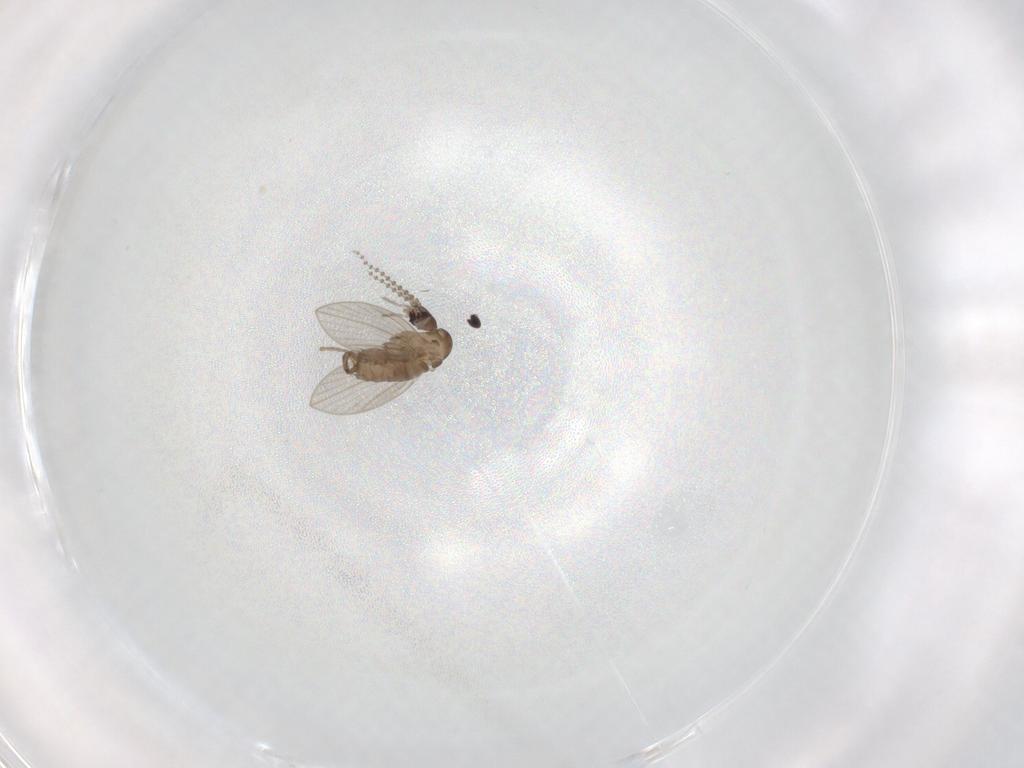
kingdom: Animalia
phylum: Arthropoda
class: Insecta
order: Diptera
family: Psychodidae
